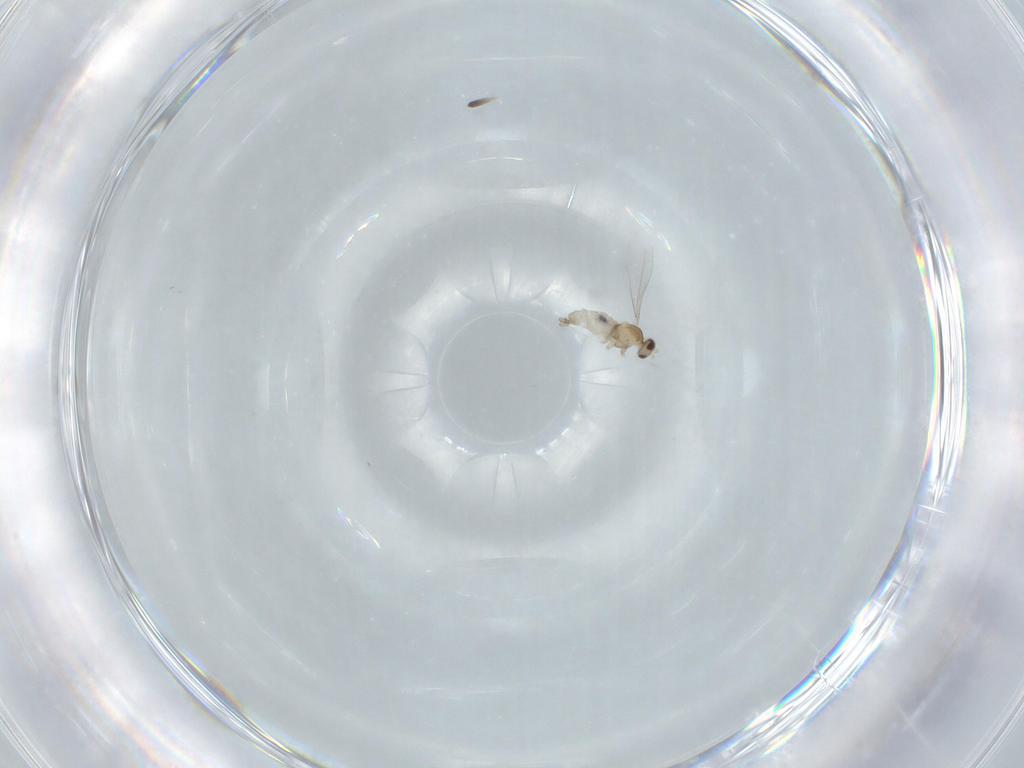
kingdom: Animalia
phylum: Arthropoda
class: Insecta
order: Diptera
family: Cecidomyiidae
